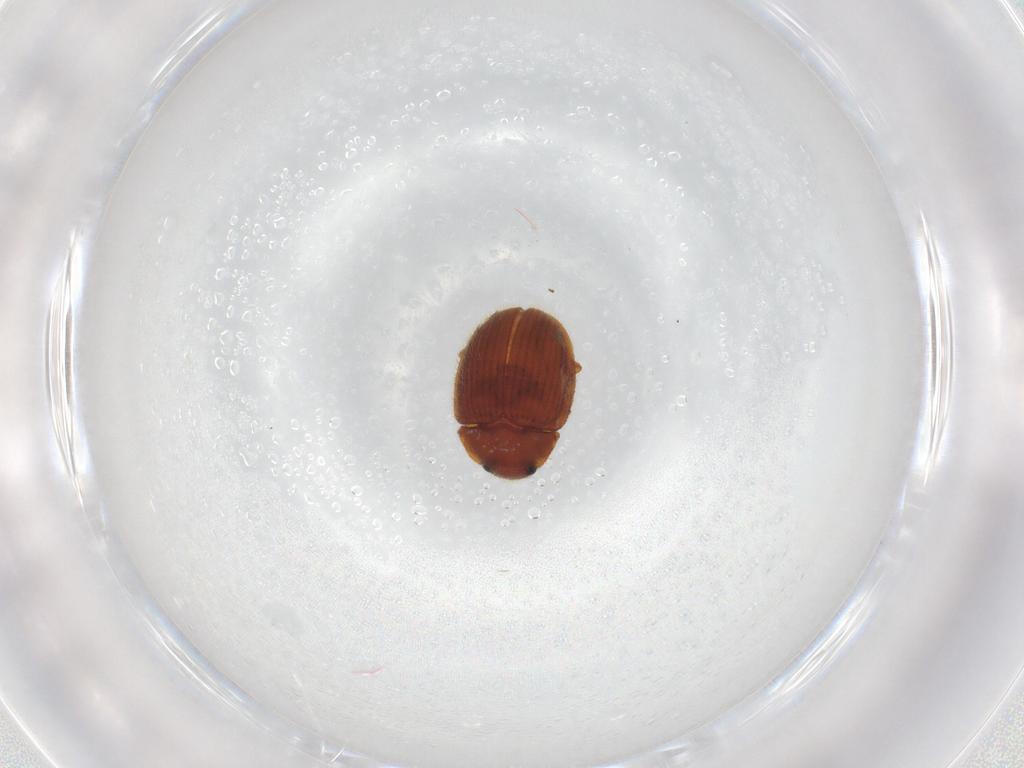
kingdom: Animalia
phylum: Arthropoda
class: Insecta
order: Coleoptera
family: Euxestidae
